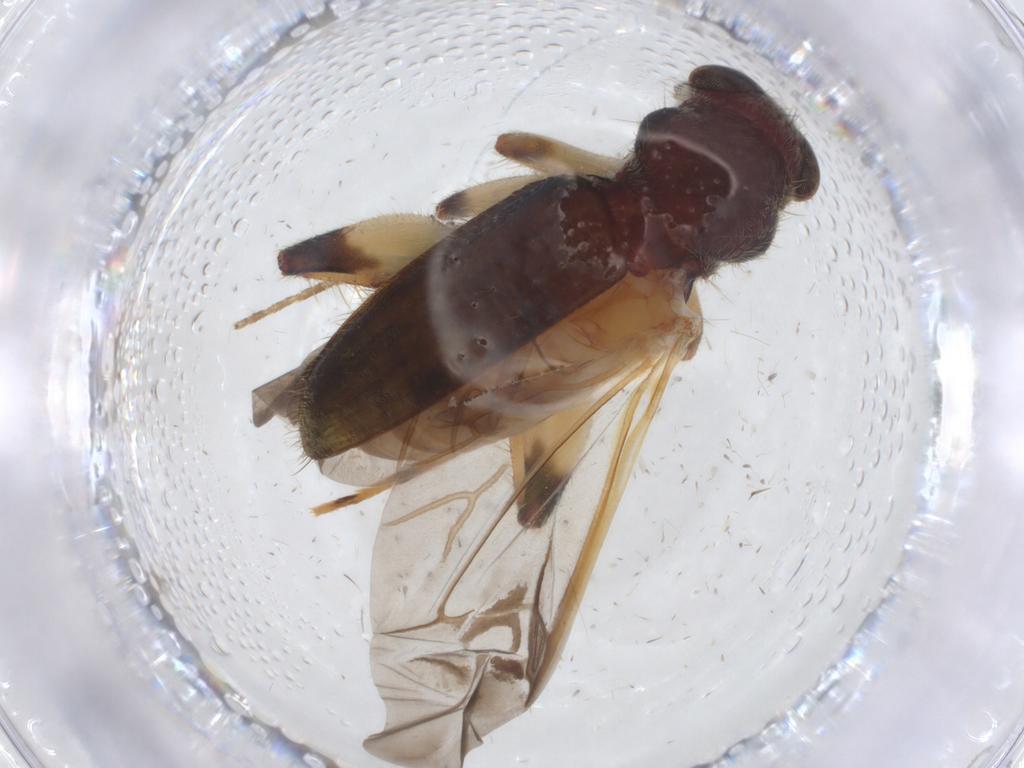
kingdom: Animalia
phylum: Arthropoda
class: Insecta
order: Coleoptera
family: Cleridae
